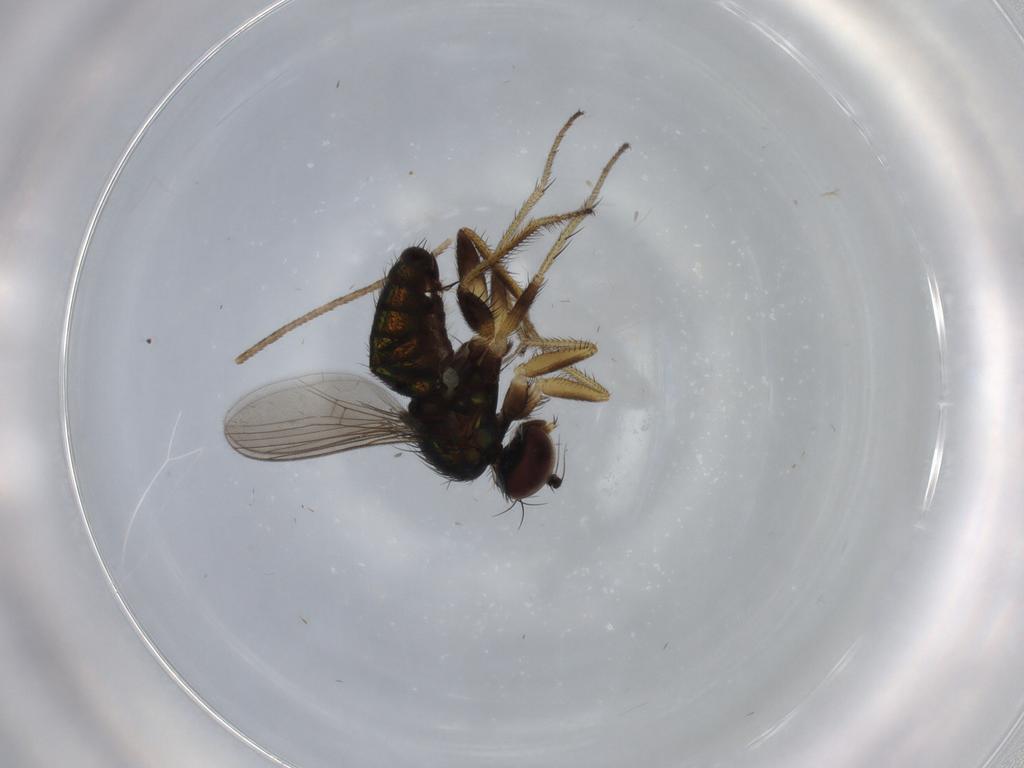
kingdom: Animalia
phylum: Arthropoda
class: Insecta
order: Diptera
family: Dolichopodidae
